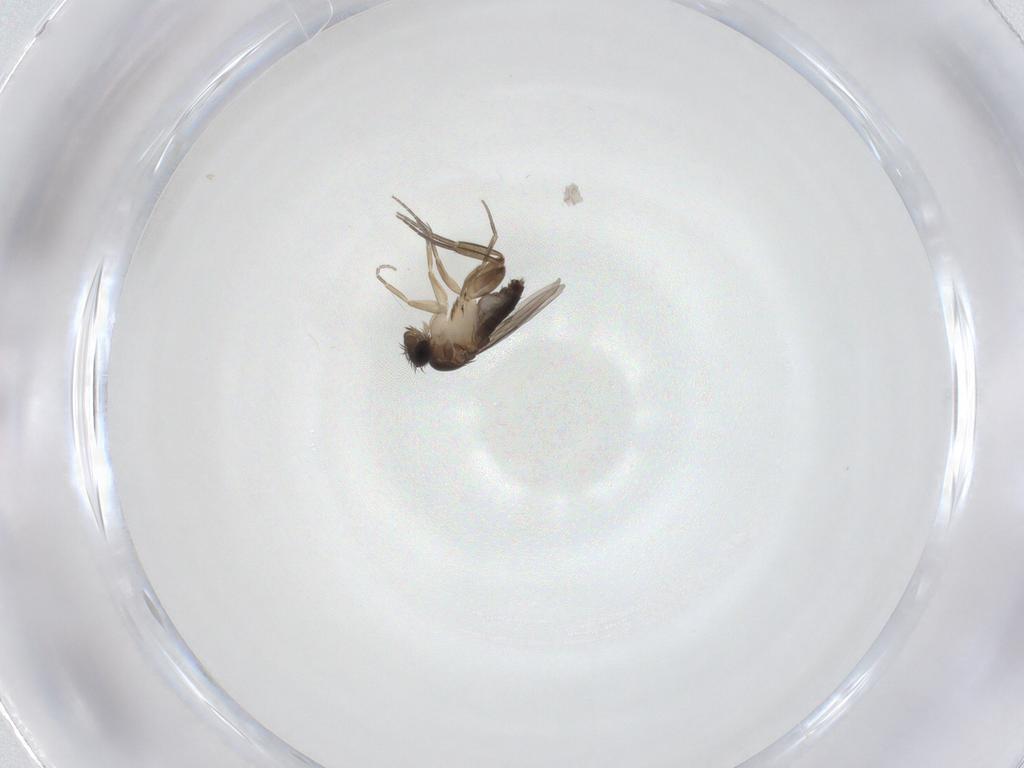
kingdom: Animalia
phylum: Arthropoda
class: Insecta
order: Diptera
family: Phoridae
